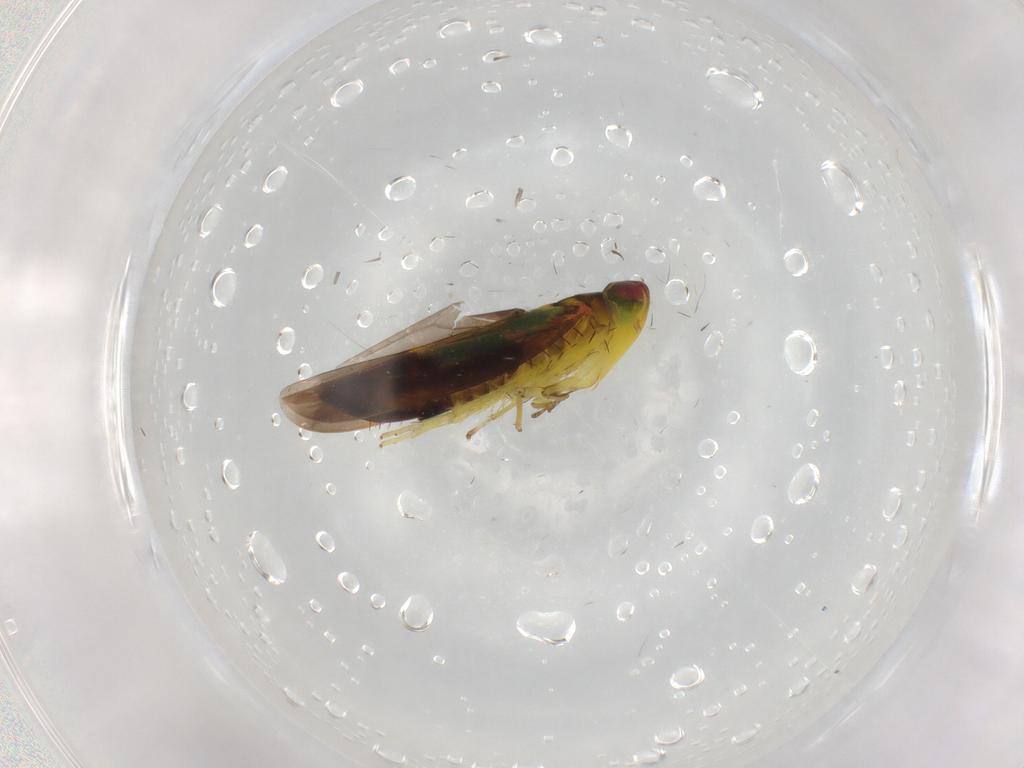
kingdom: Animalia
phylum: Arthropoda
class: Insecta
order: Hemiptera
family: Cicadellidae
